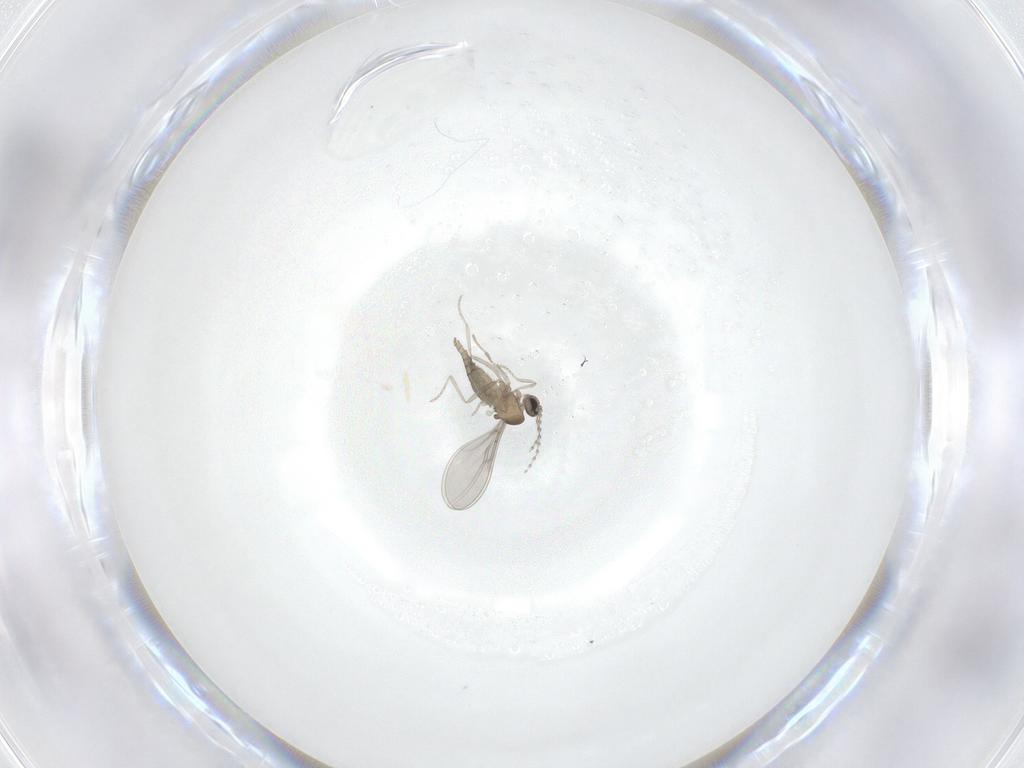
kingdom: Animalia
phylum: Arthropoda
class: Insecta
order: Diptera
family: Cecidomyiidae
